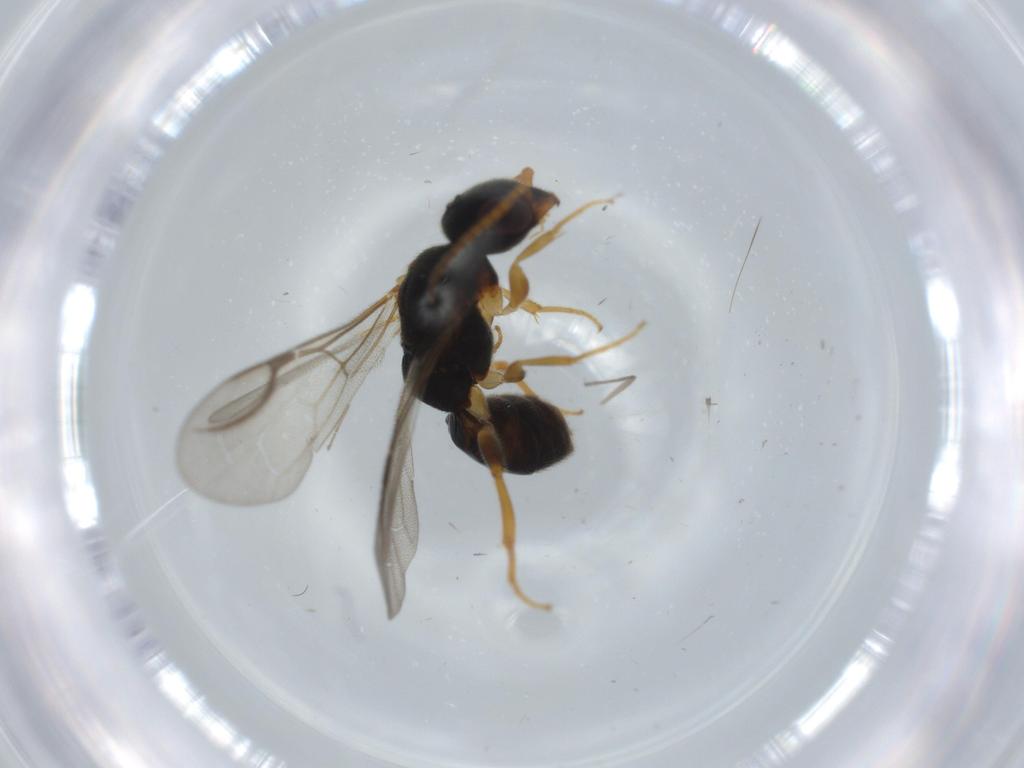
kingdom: Animalia
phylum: Arthropoda
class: Insecta
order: Hymenoptera
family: Bethylidae
